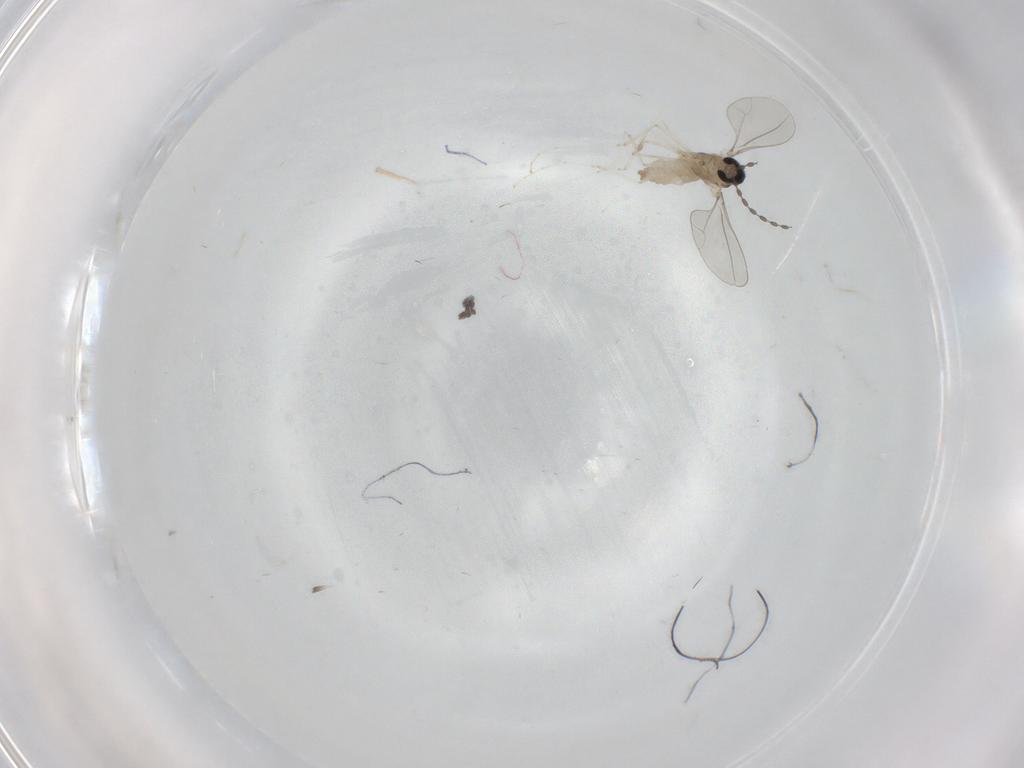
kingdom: Animalia
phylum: Arthropoda
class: Insecta
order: Diptera
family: Cecidomyiidae
